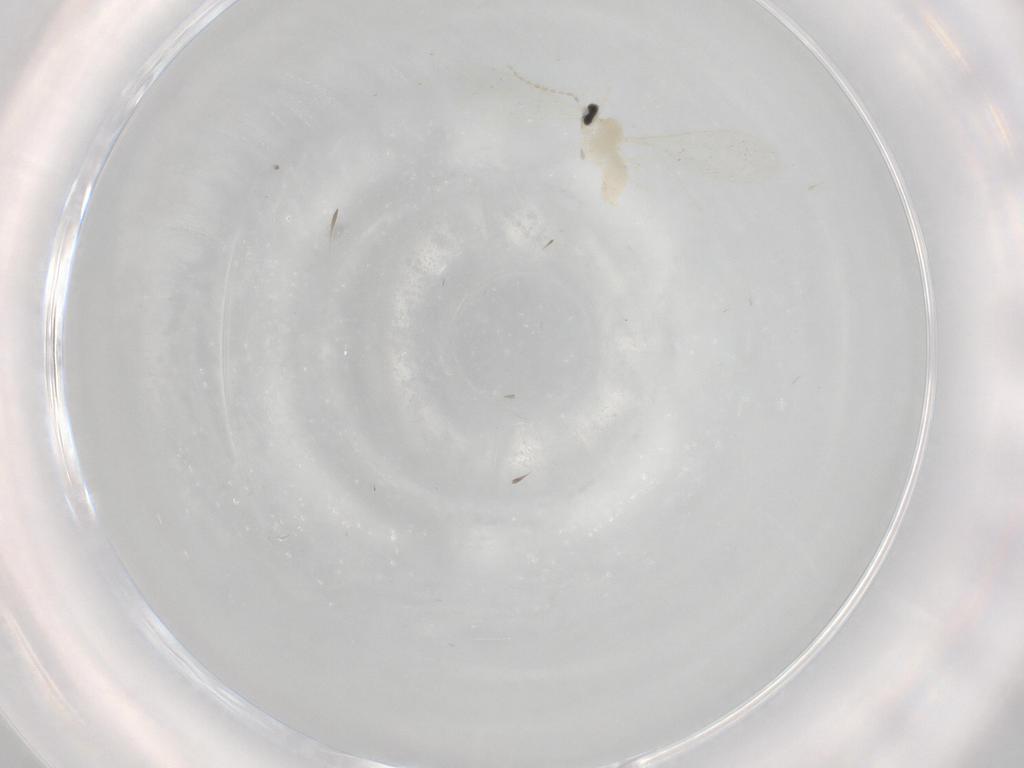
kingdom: Animalia
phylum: Arthropoda
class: Insecta
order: Diptera
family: Cecidomyiidae
